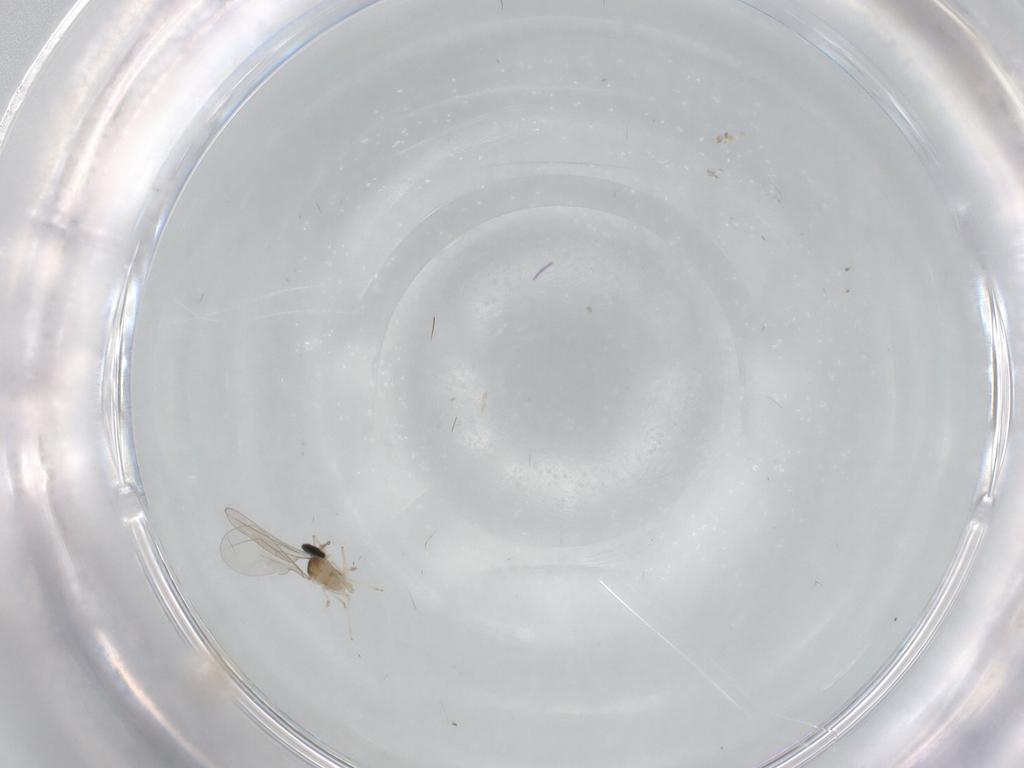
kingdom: Animalia
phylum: Arthropoda
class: Insecta
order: Diptera
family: Cecidomyiidae
